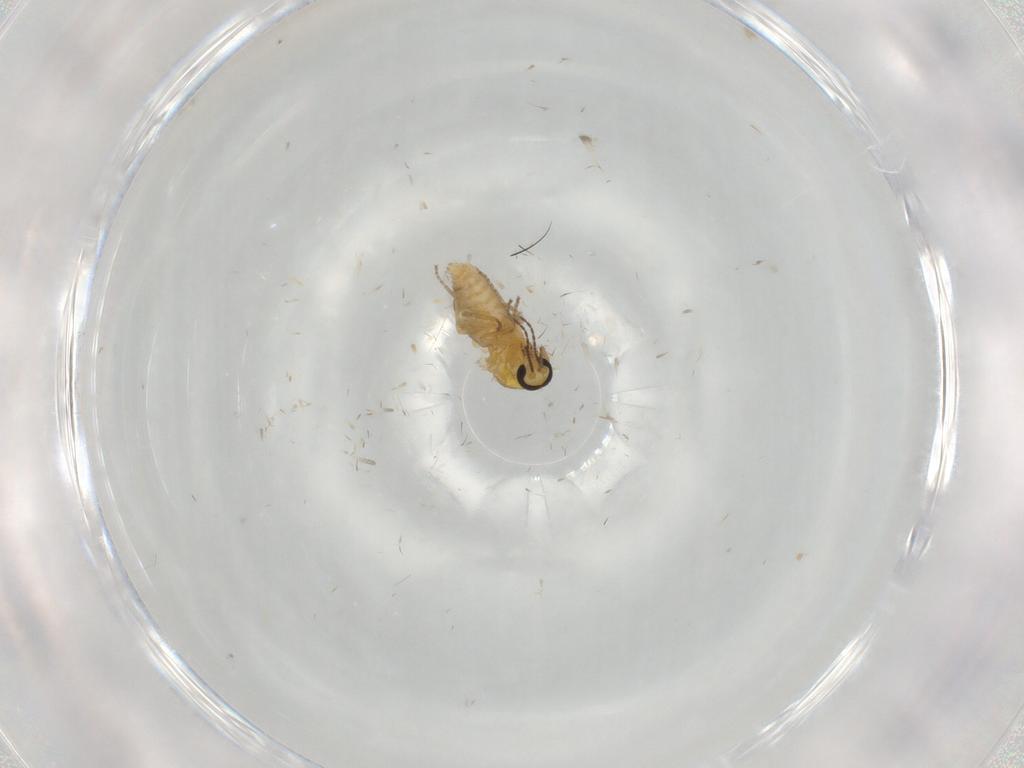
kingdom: Animalia
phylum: Arthropoda
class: Insecta
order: Diptera
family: Ceratopogonidae
